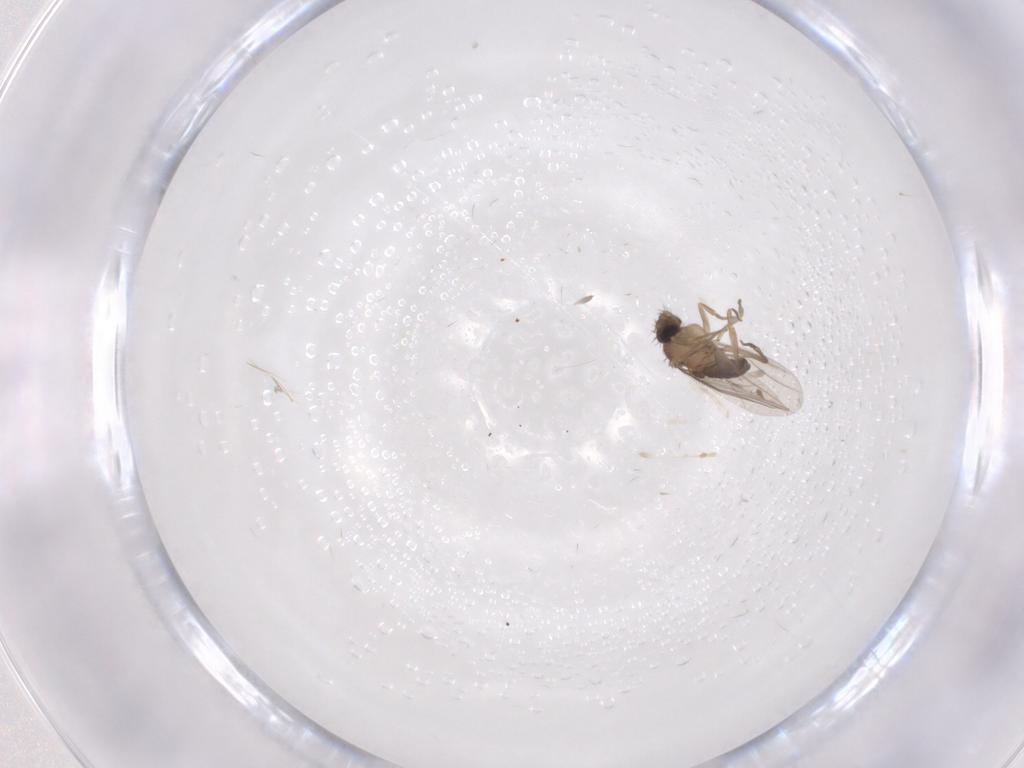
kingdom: Animalia
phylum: Arthropoda
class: Insecta
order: Diptera
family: Phoridae
